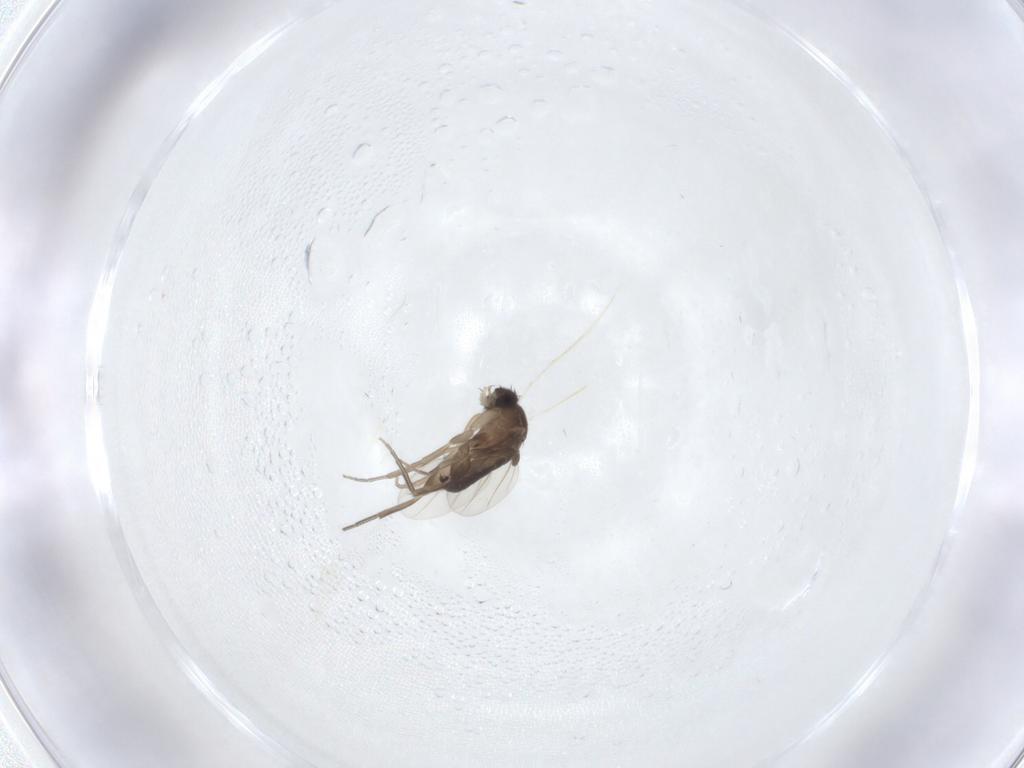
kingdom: Animalia
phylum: Arthropoda
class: Insecta
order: Diptera
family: Phoridae
